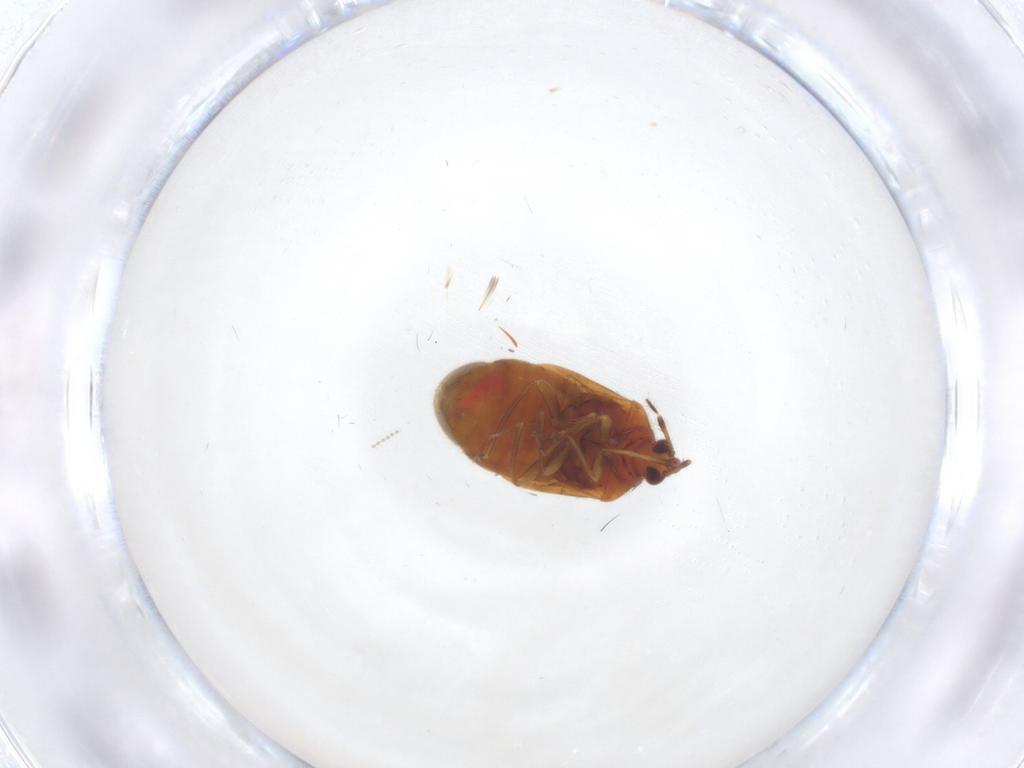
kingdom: Animalia
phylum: Arthropoda
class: Insecta
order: Hemiptera
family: Anthocoridae
